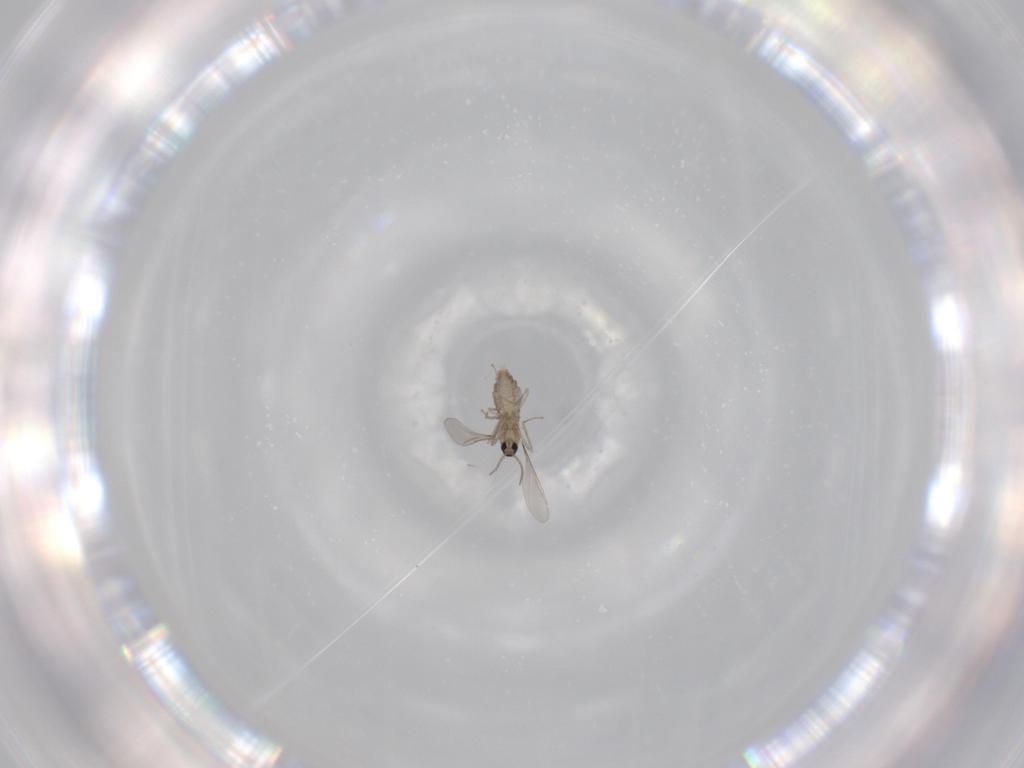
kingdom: Animalia
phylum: Arthropoda
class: Insecta
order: Diptera
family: Cecidomyiidae
